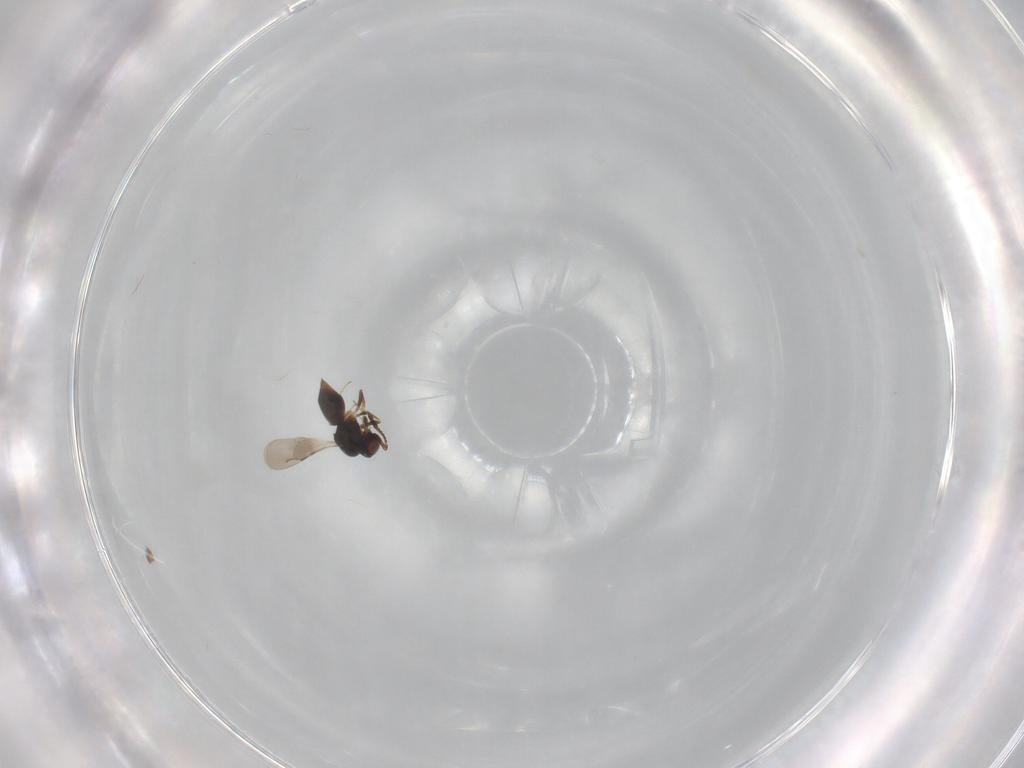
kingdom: Animalia
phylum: Arthropoda
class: Insecta
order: Hymenoptera
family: Ceraphronidae
